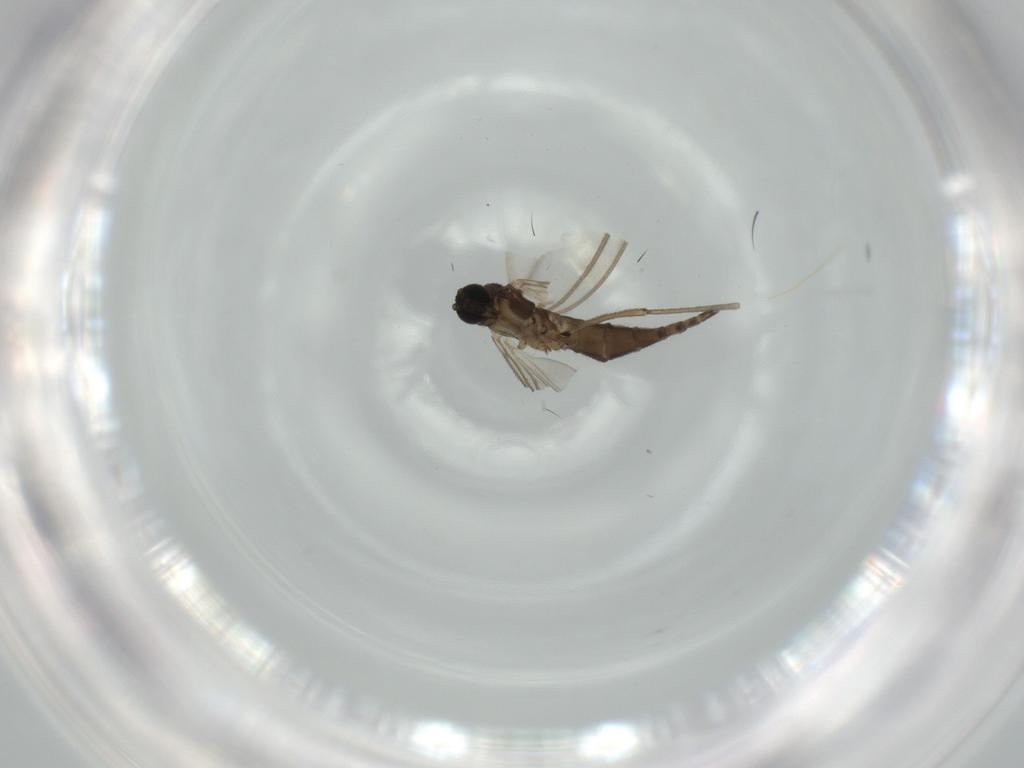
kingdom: Animalia
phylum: Arthropoda
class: Insecta
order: Diptera
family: Sciaridae
